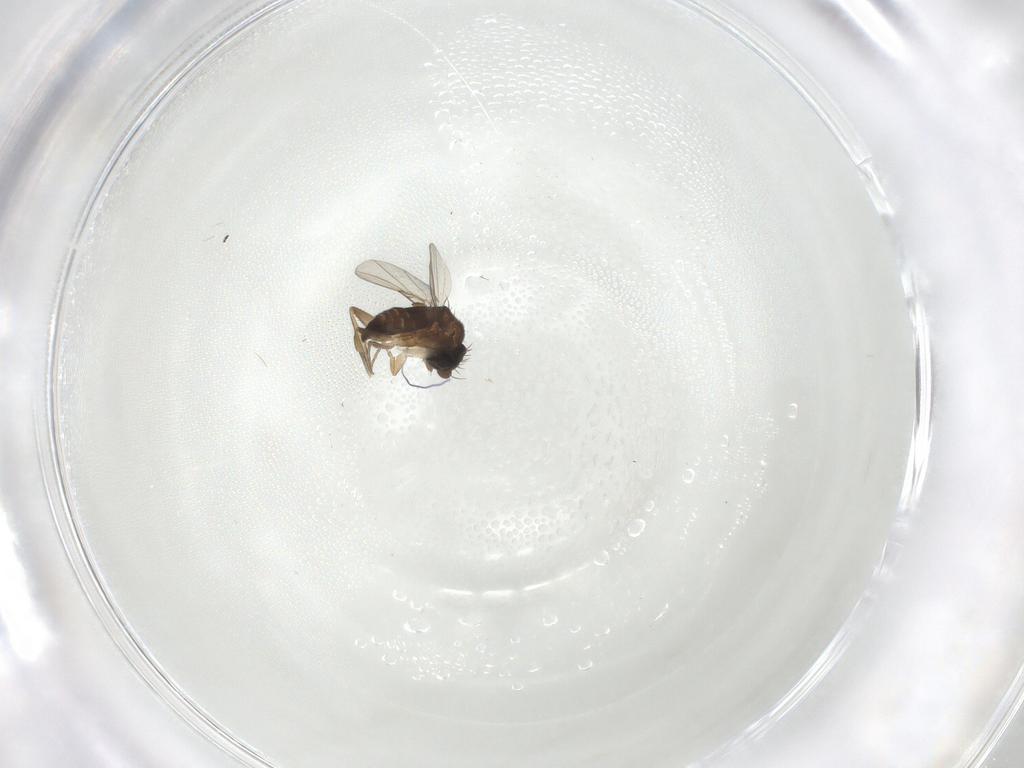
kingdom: Animalia
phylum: Arthropoda
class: Insecta
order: Diptera
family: Phoridae
